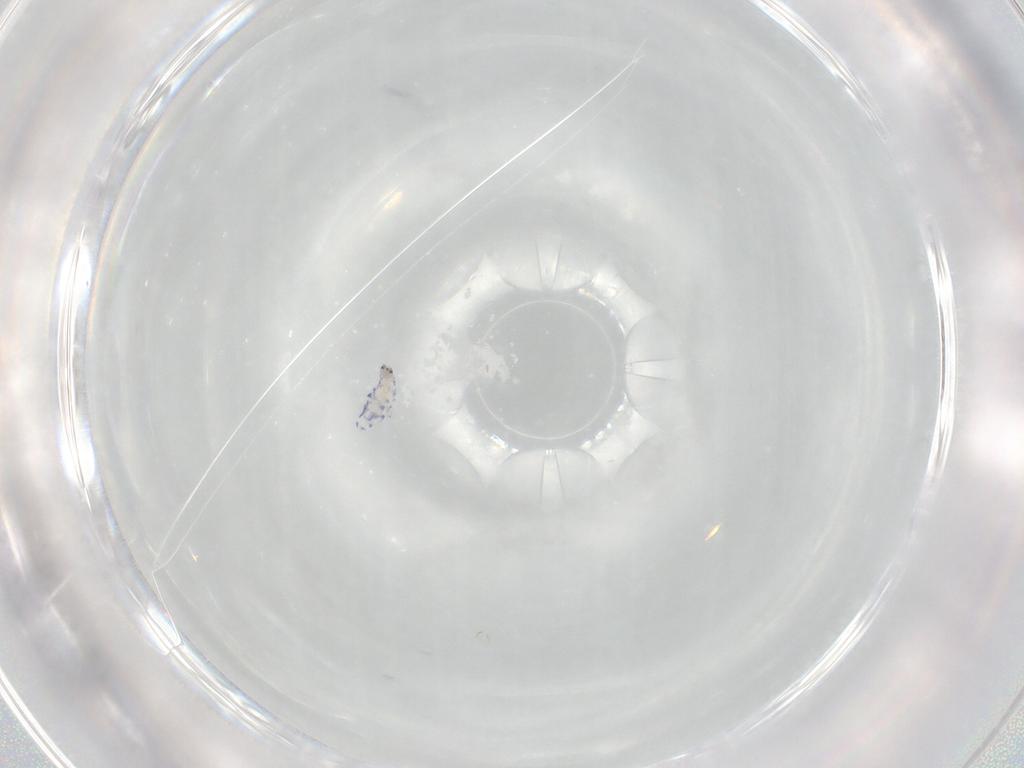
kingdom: Animalia
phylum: Arthropoda
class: Collembola
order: Entomobryomorpha
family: Entomobryidae
